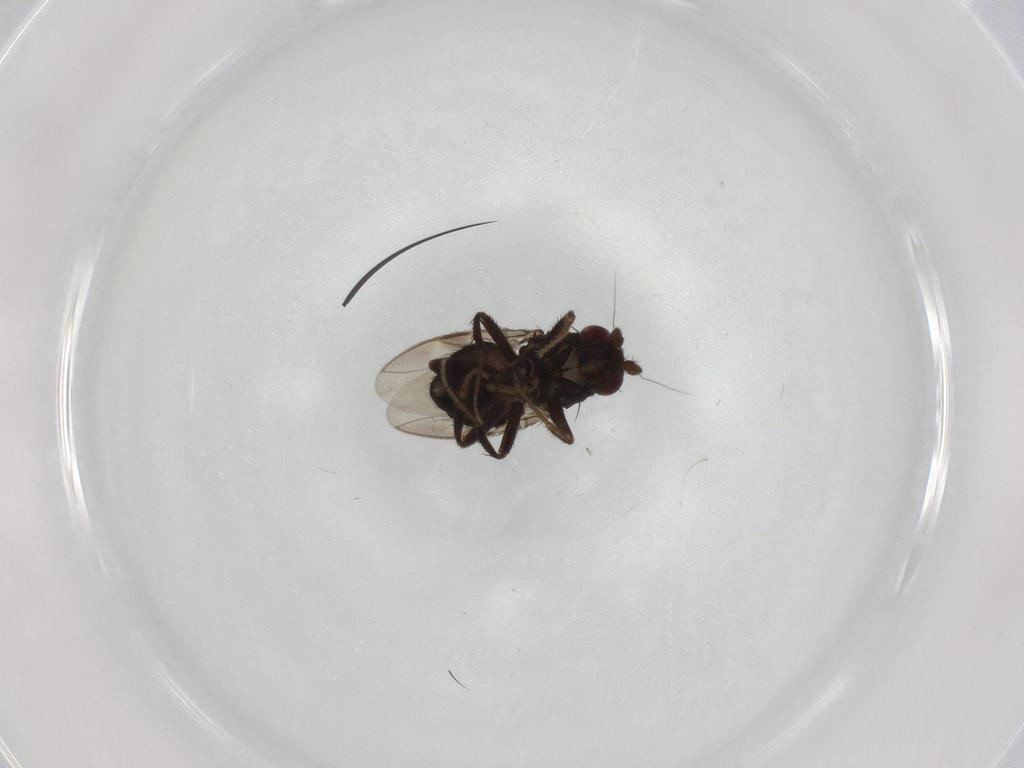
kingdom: Animalia
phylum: Arthropoda
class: Insecta
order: Diptera
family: Sphaeroceridae
